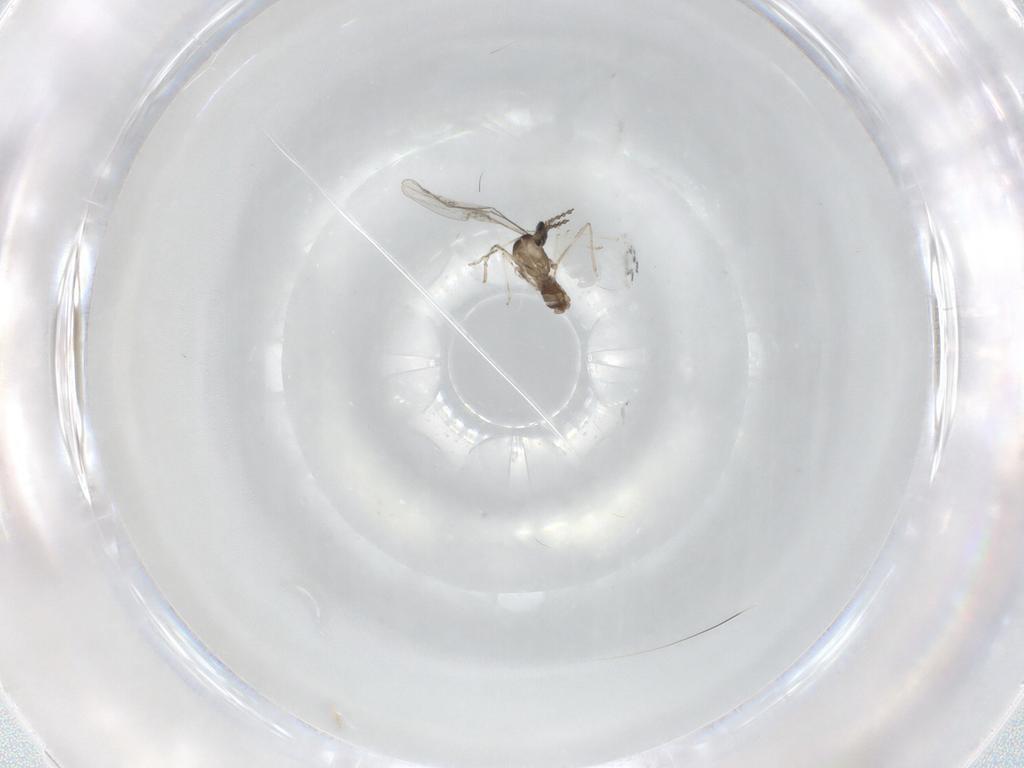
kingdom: Animalia
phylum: Arthropoda
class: Insecta
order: Diptera
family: Cecidomyiidae
